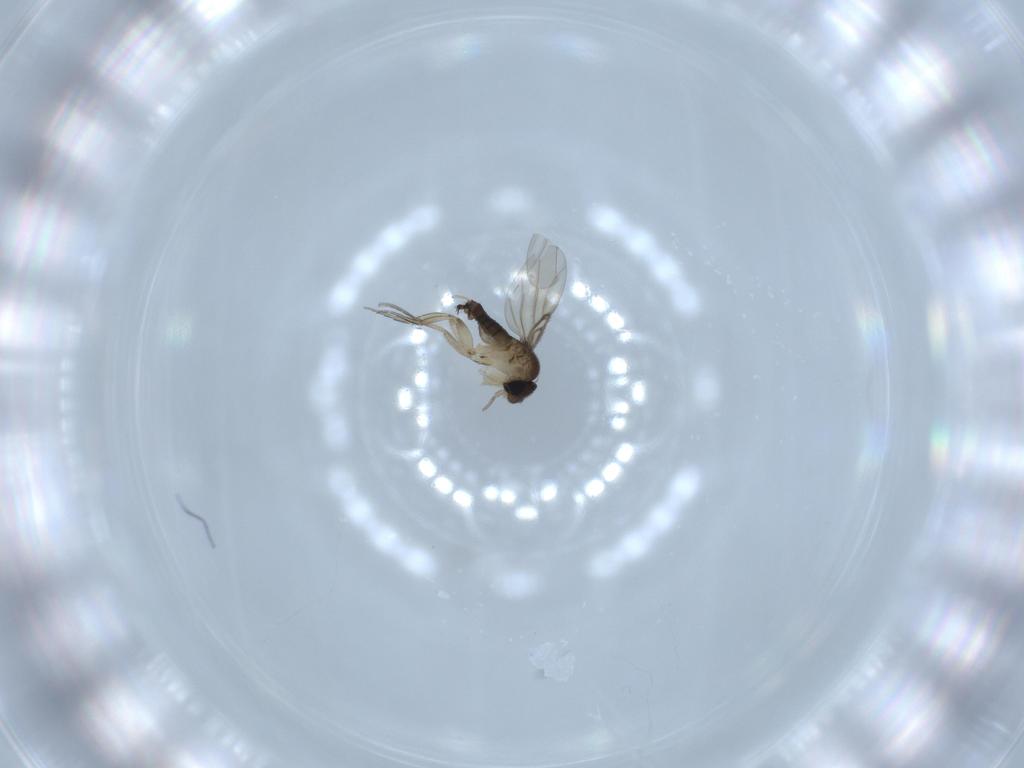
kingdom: Animalia
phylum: Arthropoda
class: Insecta
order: Diptera
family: Phoridae
